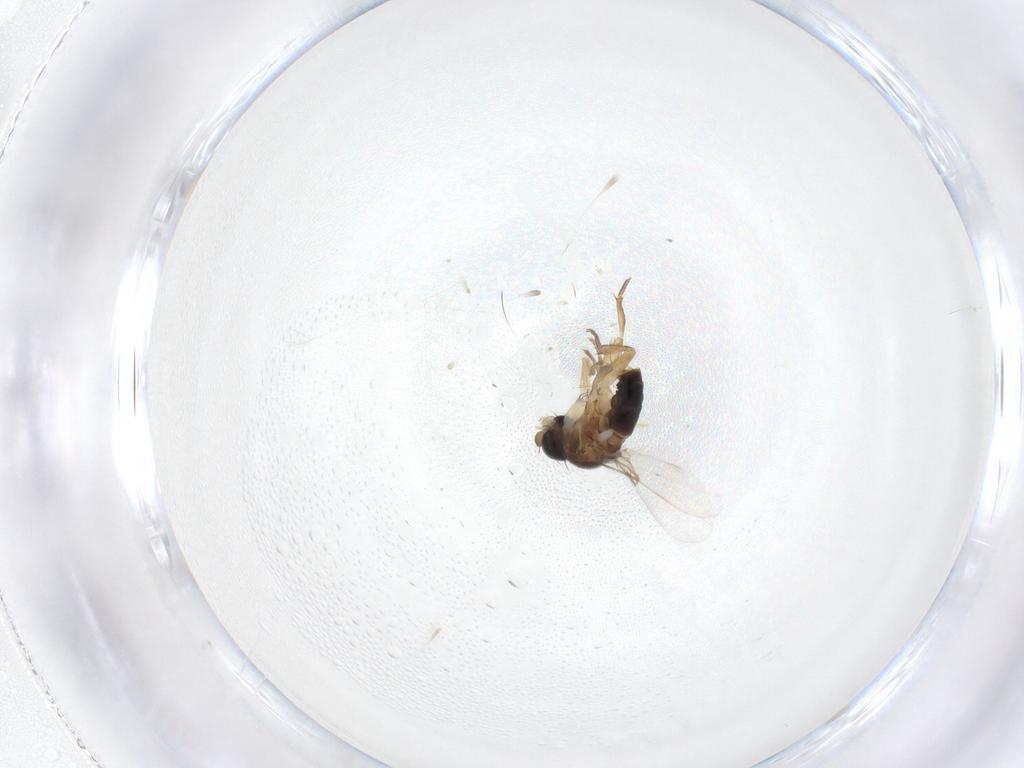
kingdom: Animalia
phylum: Arthropoda
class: Insecta
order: Diptera
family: Phoridae
